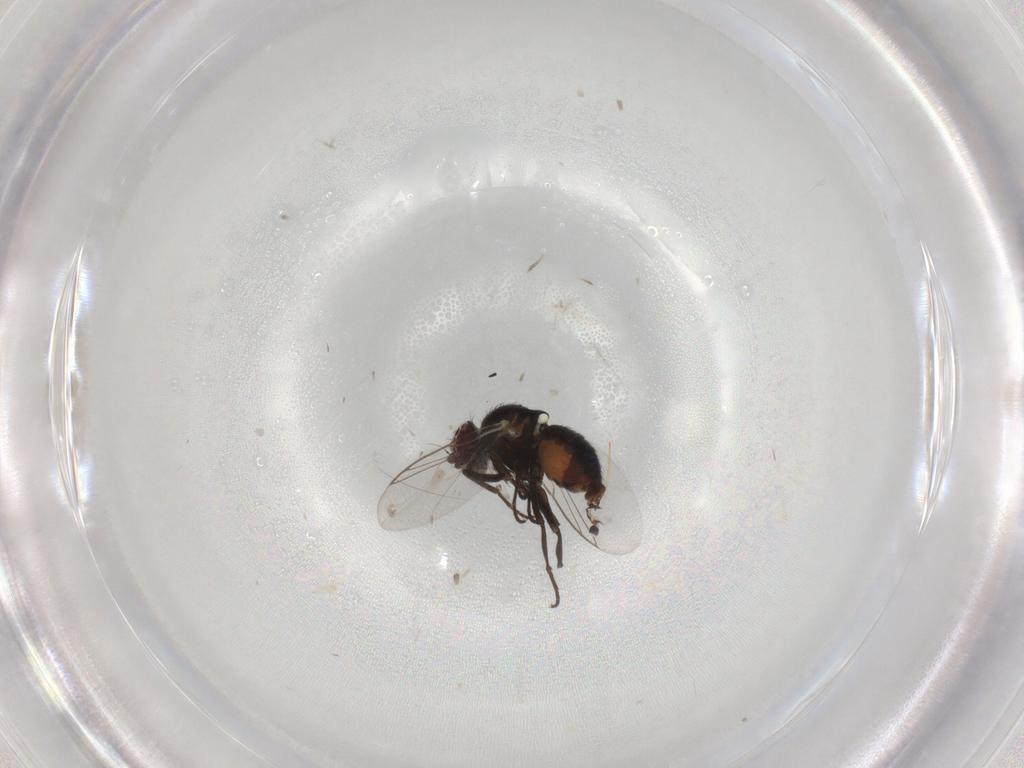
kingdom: Animalia
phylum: Arthropoda
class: Insecta
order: Diptera
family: Agromyzidae
